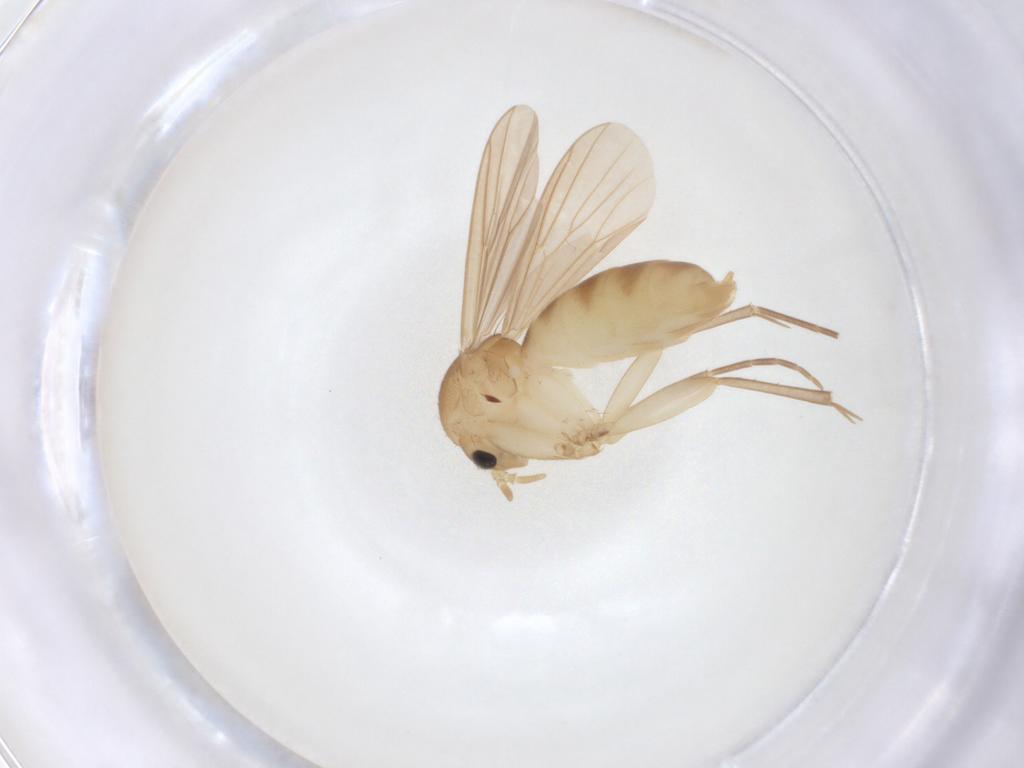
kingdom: Animalia
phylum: Arthropoda
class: Insecta
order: Diptera
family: Mycetophilidae
